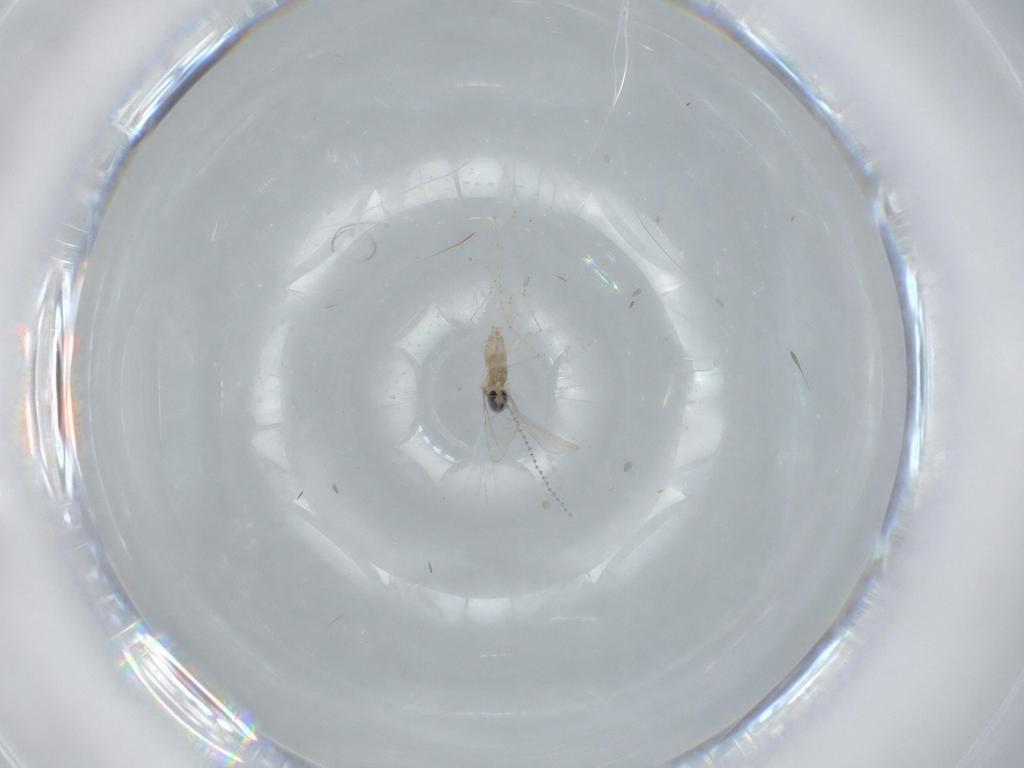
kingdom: Animalia
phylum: Arthropoda
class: Insecta
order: Diptera
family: Cecidomyiidae
